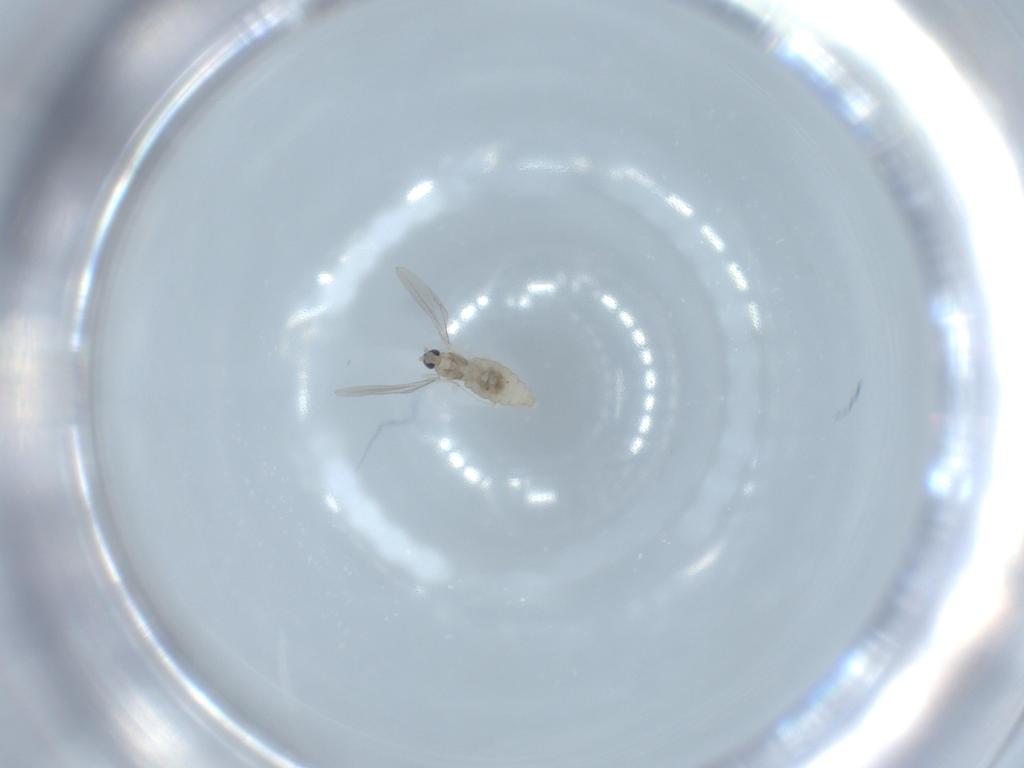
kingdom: Animalia
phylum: Arthropoda
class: Insecta
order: Diptera
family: Cecidomyiidae
